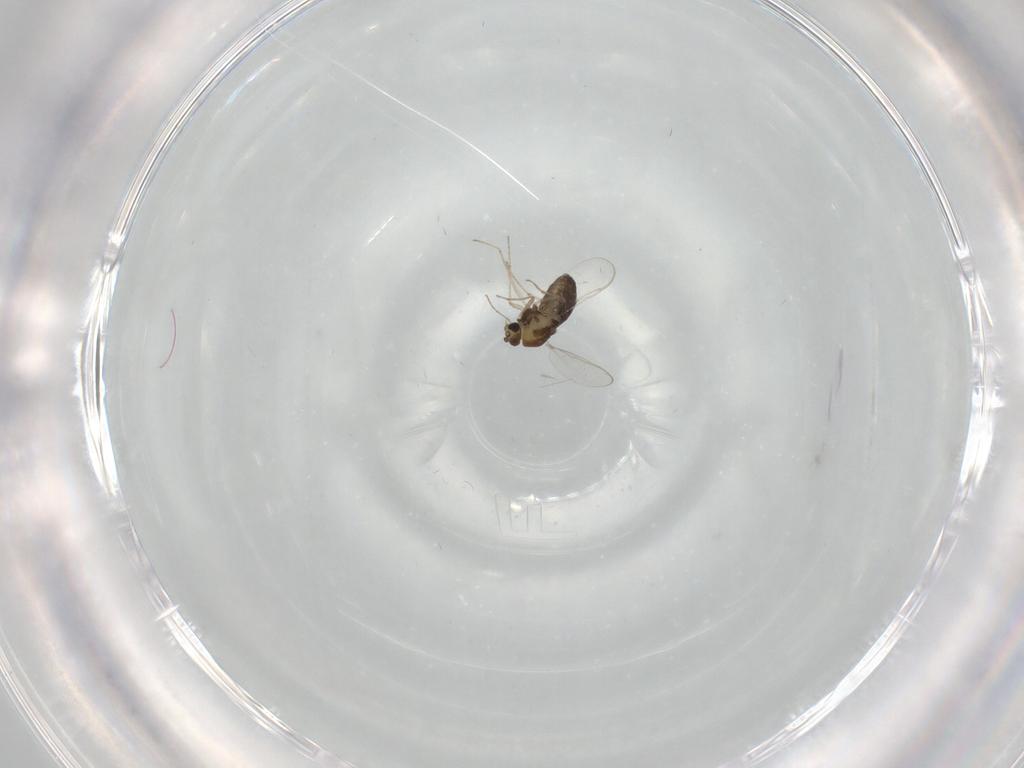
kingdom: Animalia
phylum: Arthropoda
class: Insecta
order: Diptera
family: Chironomidae
